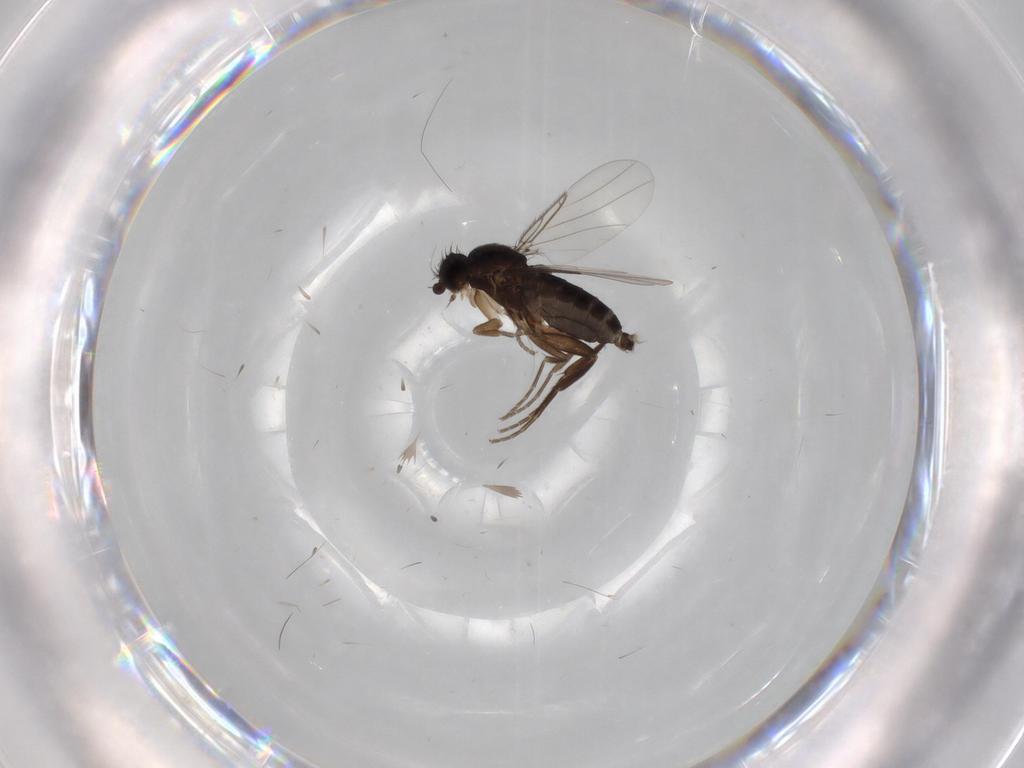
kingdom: Animalia
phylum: Arthropoda
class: Insecta
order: Diptera
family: Phoridae
